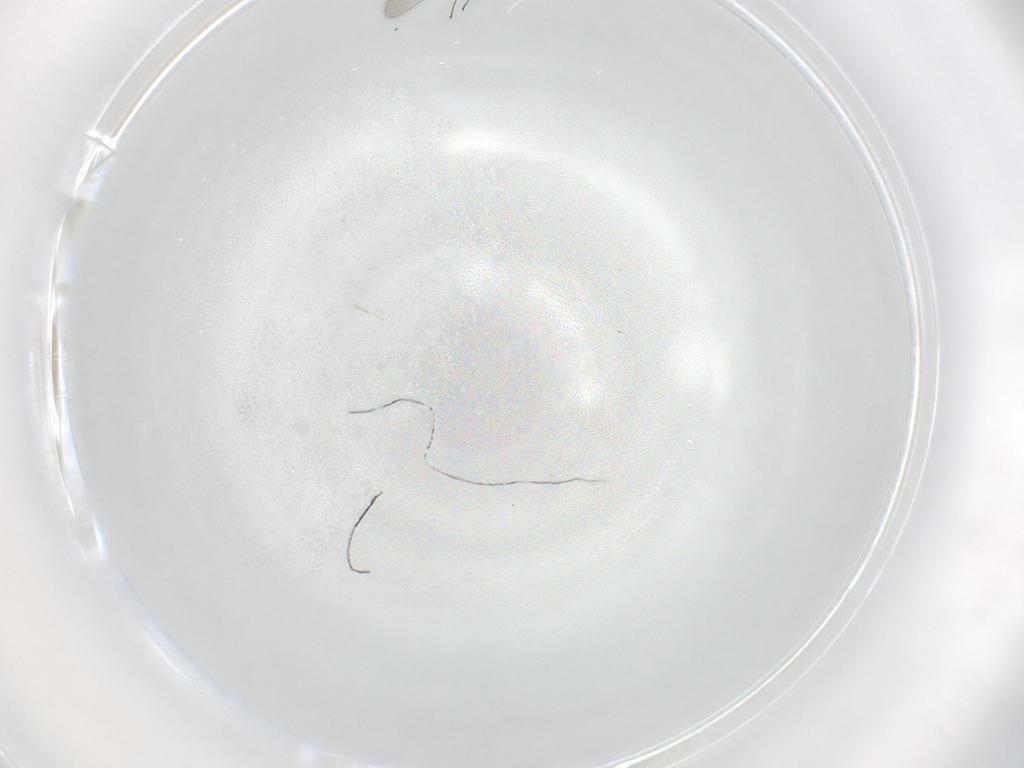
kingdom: Animalia
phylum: Arthropoda
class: Insecta
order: Hymenoptera
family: Mymaridae
